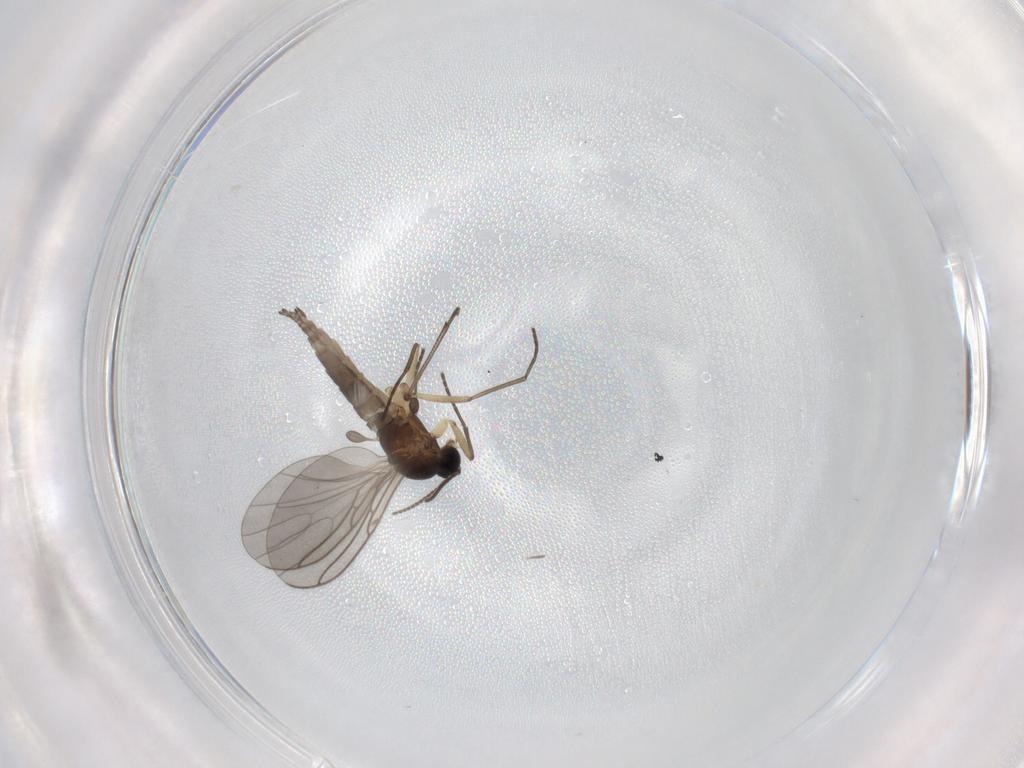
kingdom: Animalia
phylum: Arthropoda
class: Insecta
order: Diptera
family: Sciaridae
